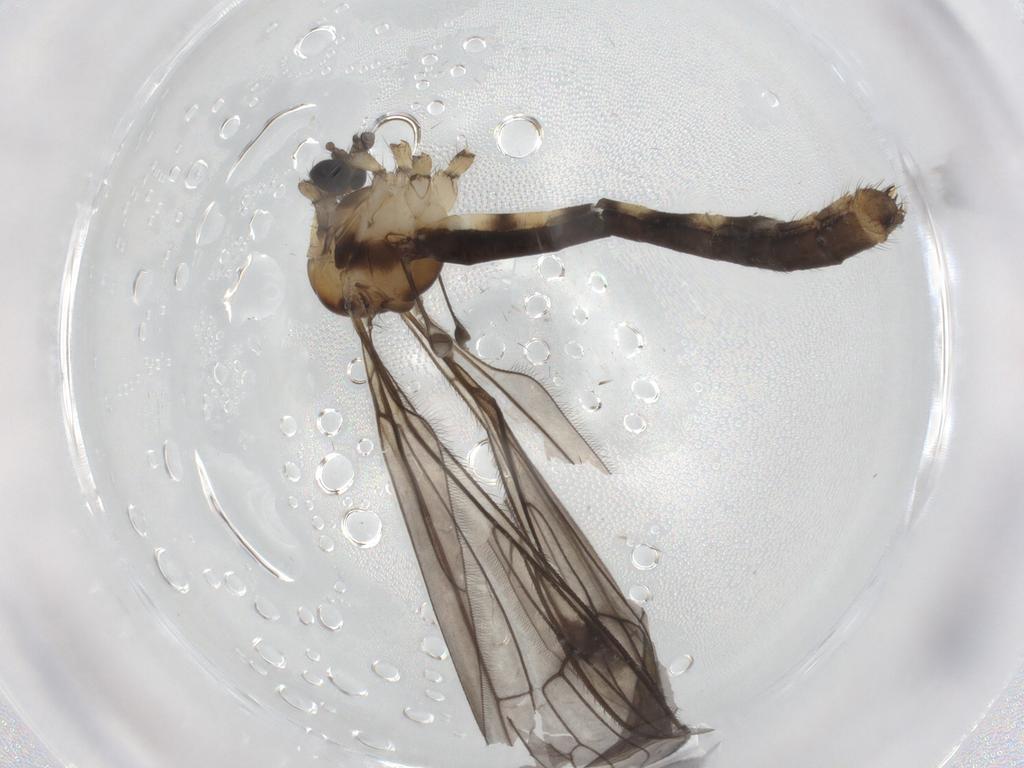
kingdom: Animalia
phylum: Arthropoda
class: Insecta
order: Diptera
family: Limoniidae
